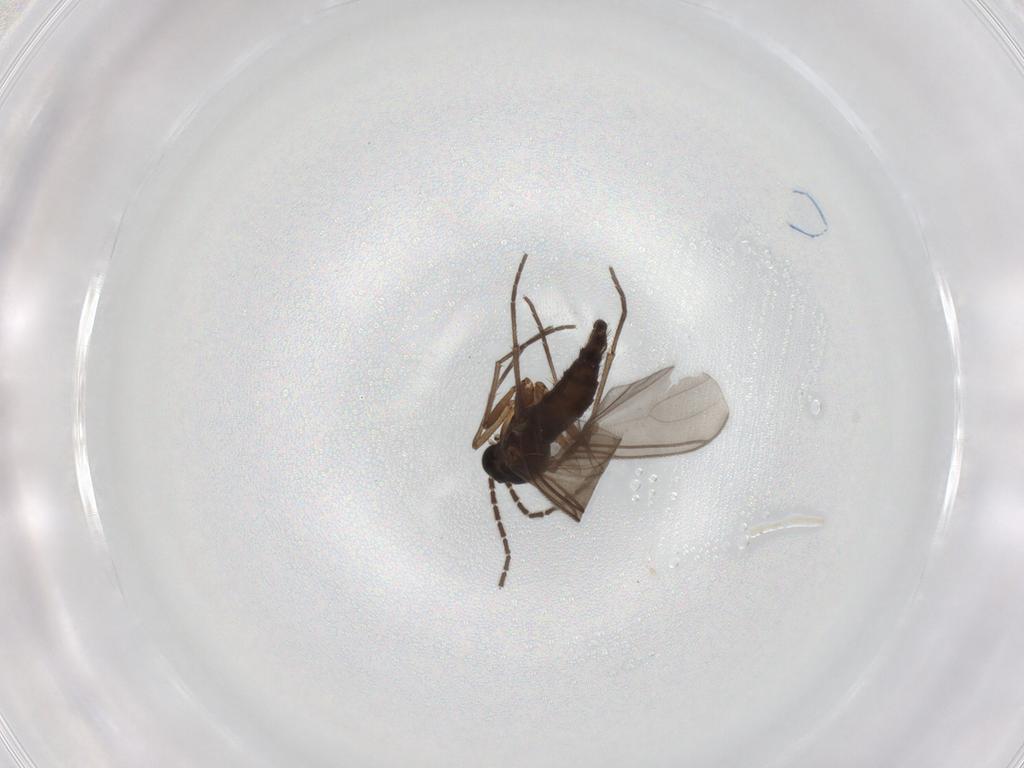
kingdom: Animalia
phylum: Arthropoda
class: Insecta
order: Diptera
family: Sciaridae
